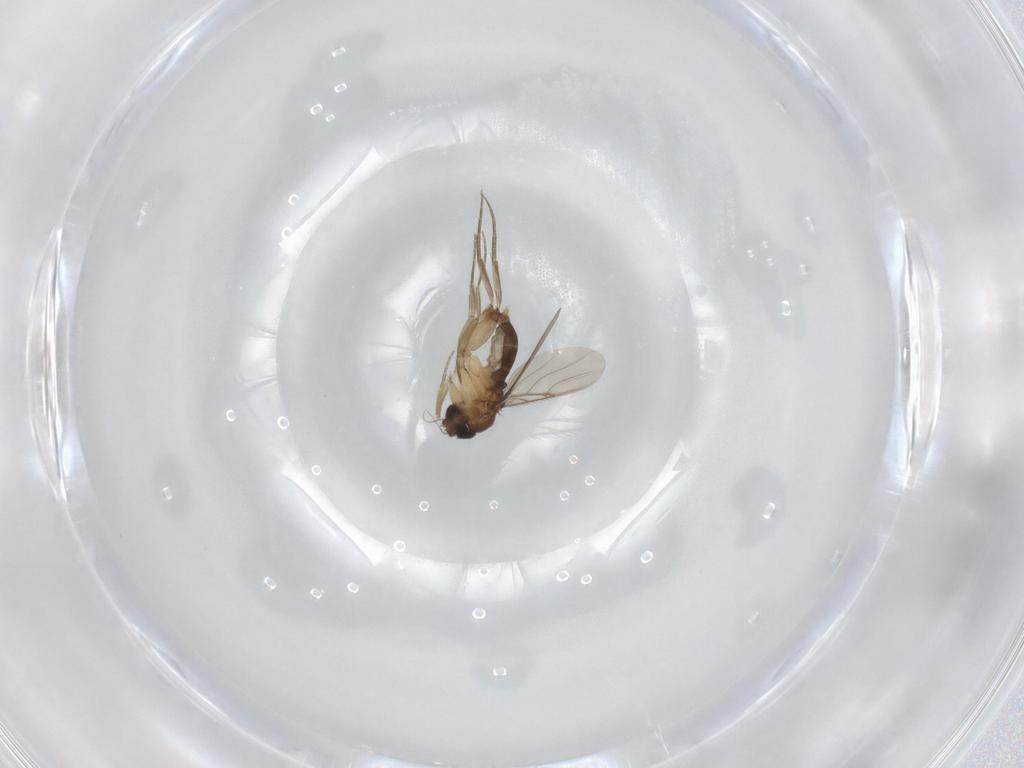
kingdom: Animalia
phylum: Arthropoda
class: Insecta
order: Diptera
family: Phoridae
